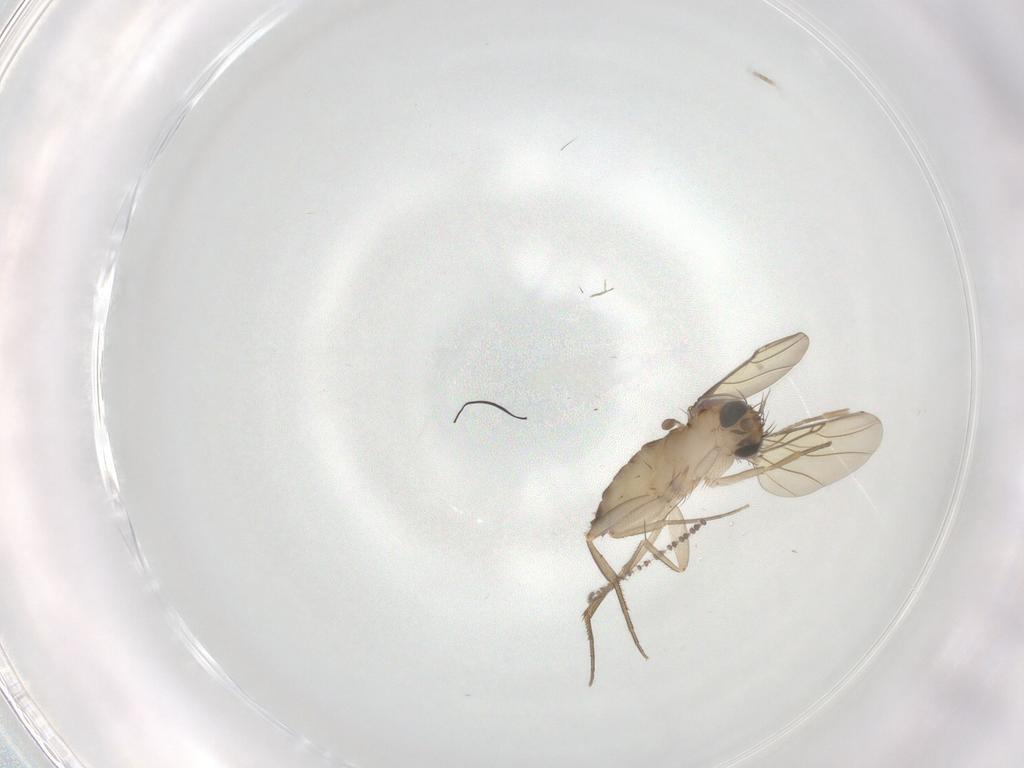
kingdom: Animalia
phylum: Arthropoda
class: Insecta
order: Diptera
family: Phoridae
